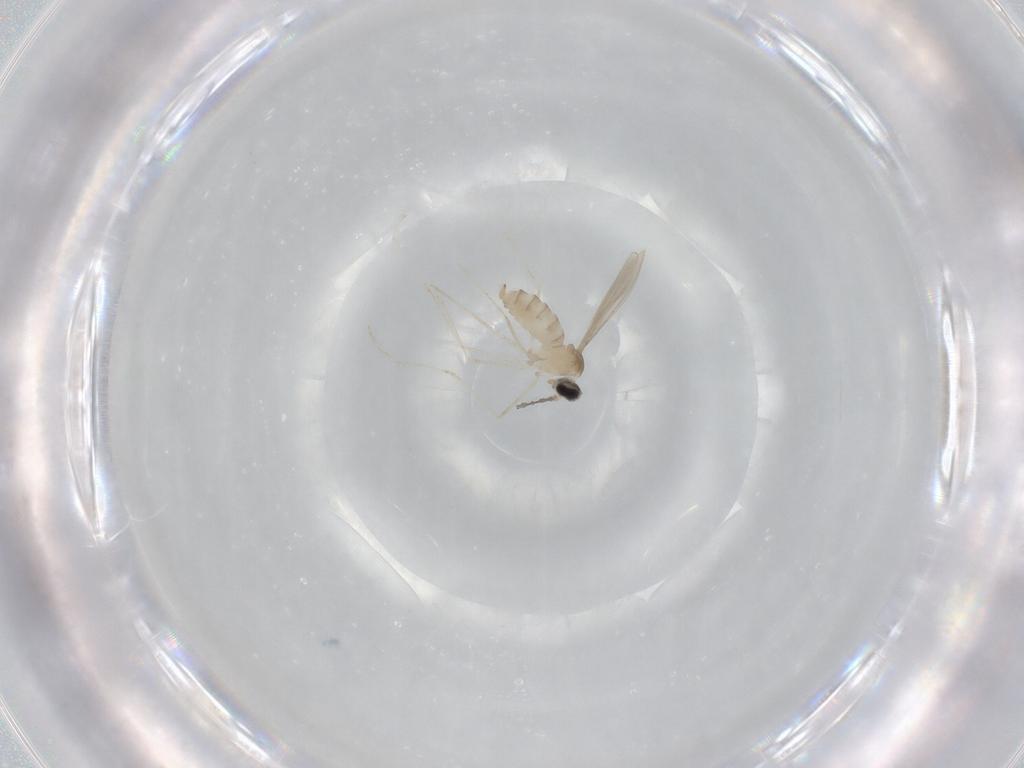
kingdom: Animalia
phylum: Arthropoda
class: Insecta
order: Diptera
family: Cecidomyiidae
